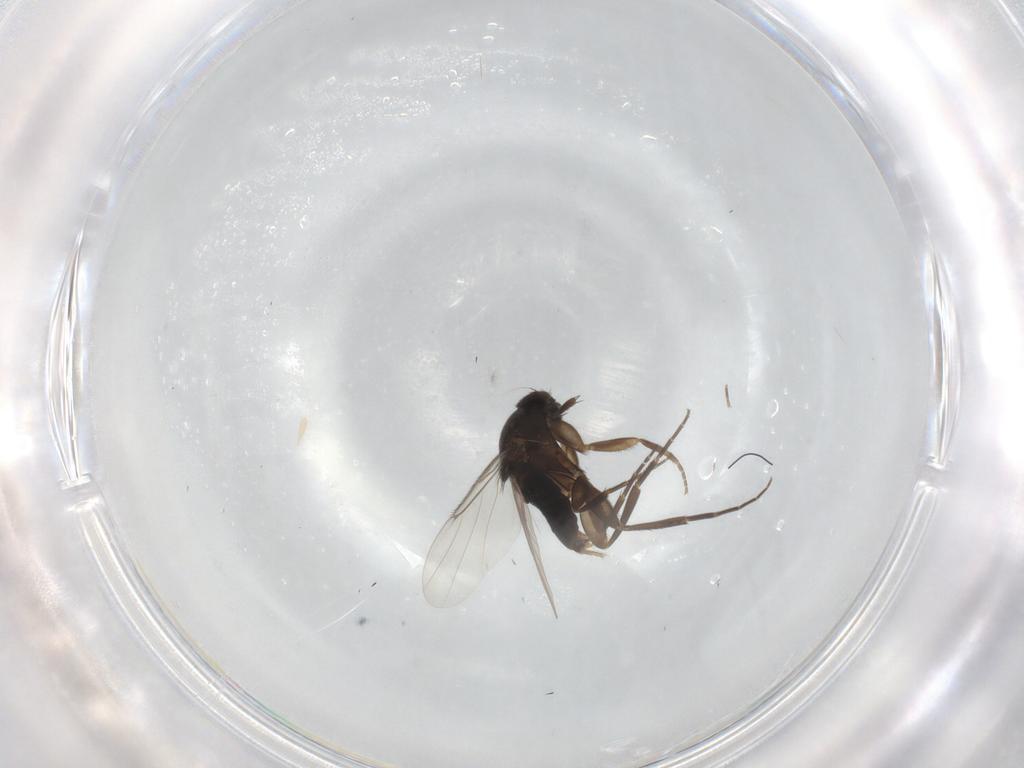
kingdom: Animalia
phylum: Arthropoda
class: Insecta
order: Diptera
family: Phoridae
